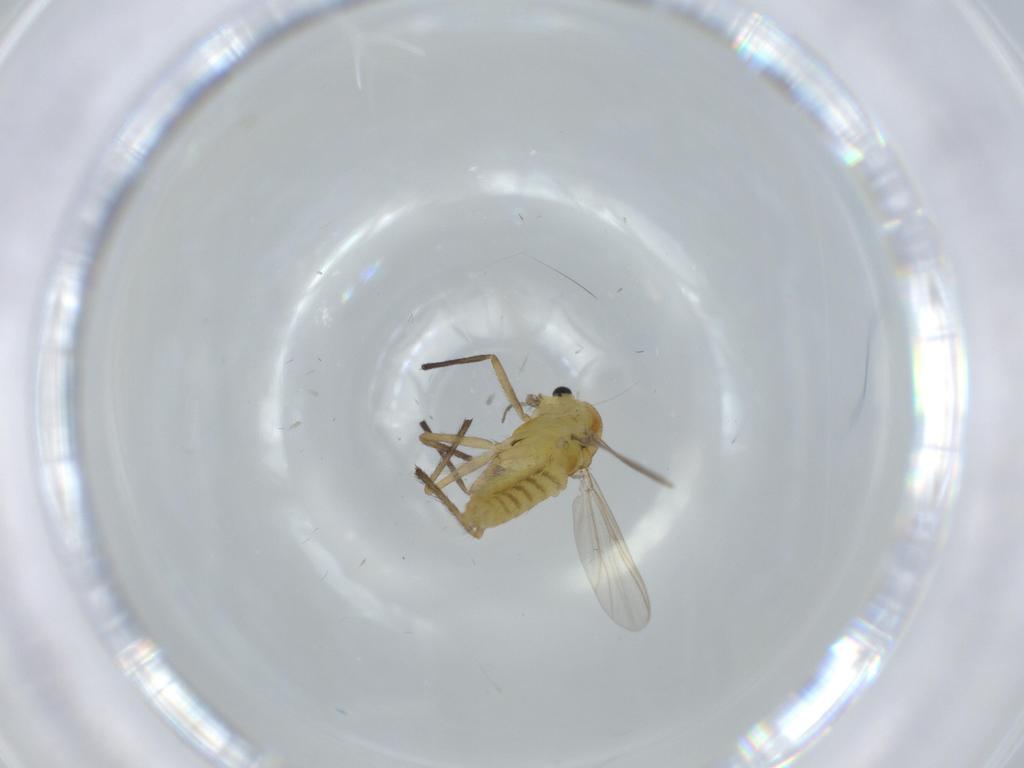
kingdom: Animalia
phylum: Arthropoda
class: Insecta
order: Diptera
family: Chironomidae
